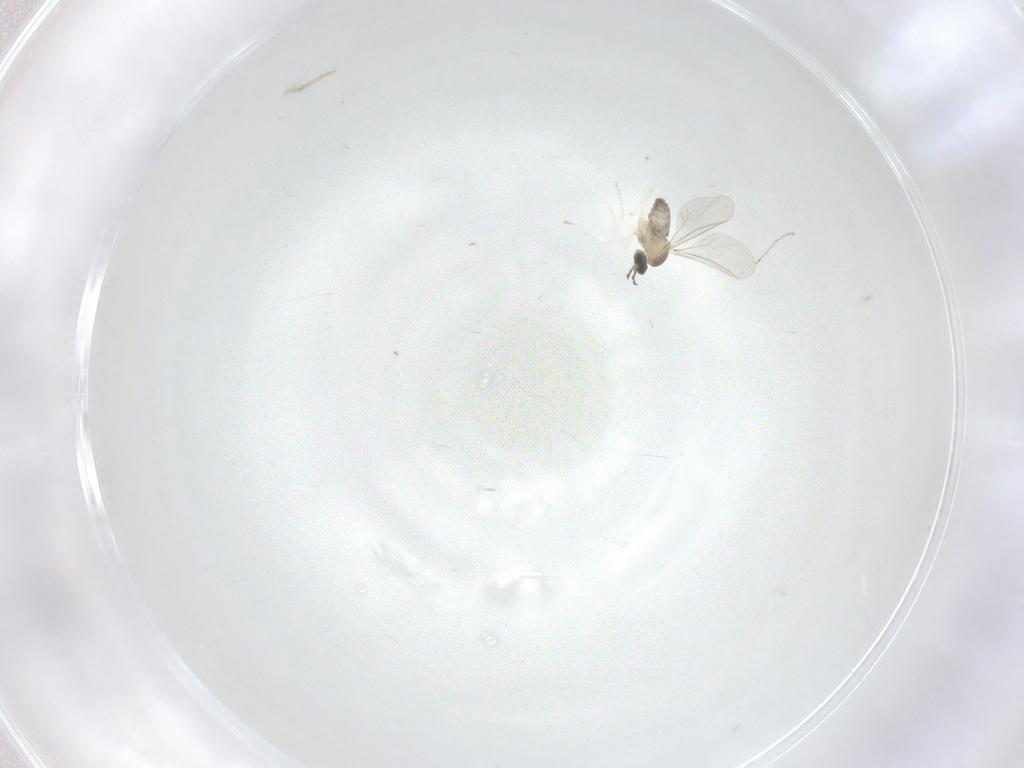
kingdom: Animalia
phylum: Arthropoda
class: Insecta
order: Diptera
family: Cecidomyiidae
